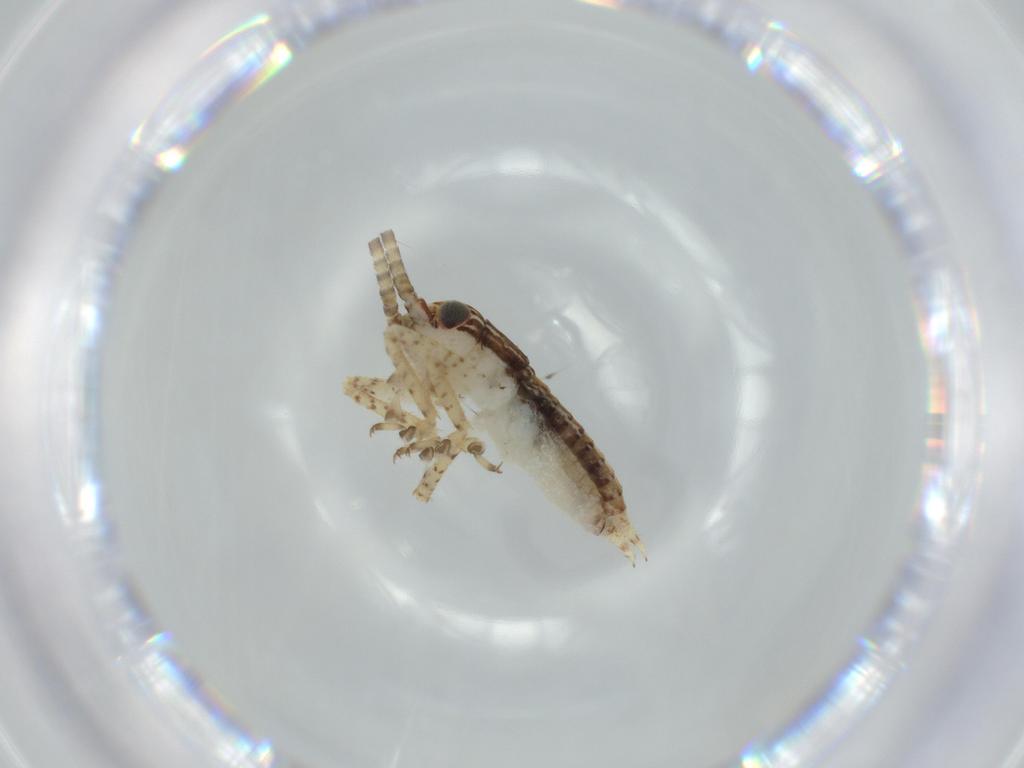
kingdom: Animalia
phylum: Arthropoda
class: Insecta
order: Orthoptera
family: Gryllidae
